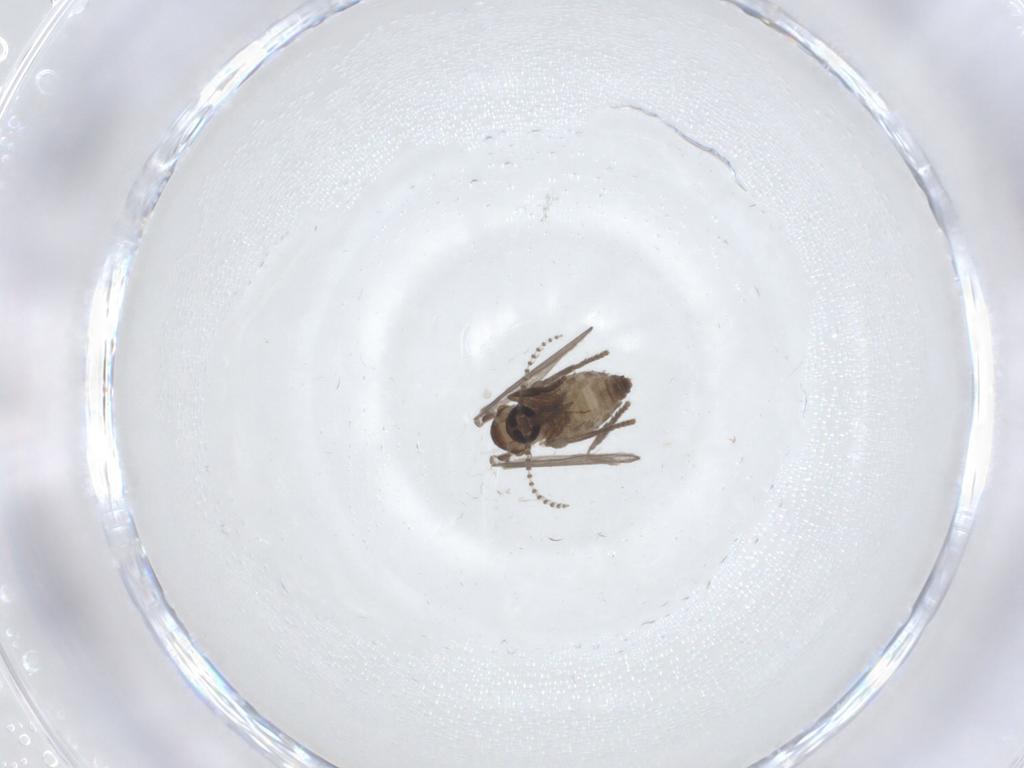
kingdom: Animalia
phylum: Arthropoda
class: Insecta
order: Diptera
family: Psychodidae
